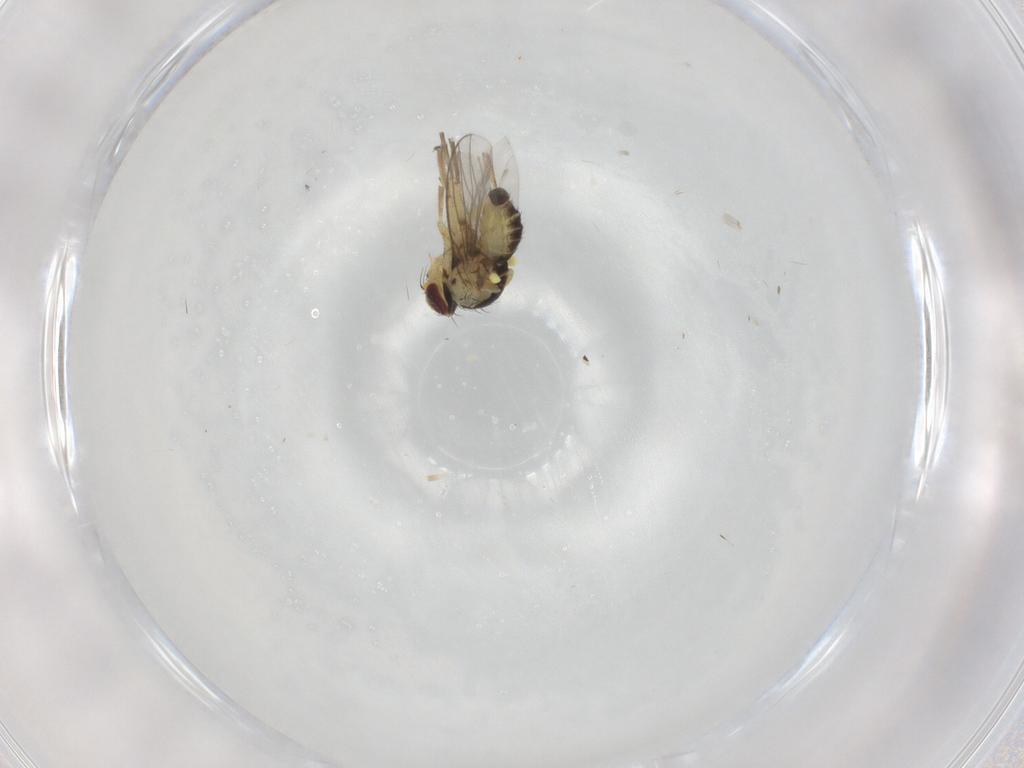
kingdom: Animalia
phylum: Arthropoda
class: Insecta
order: Diptera
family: Agromyzidae
